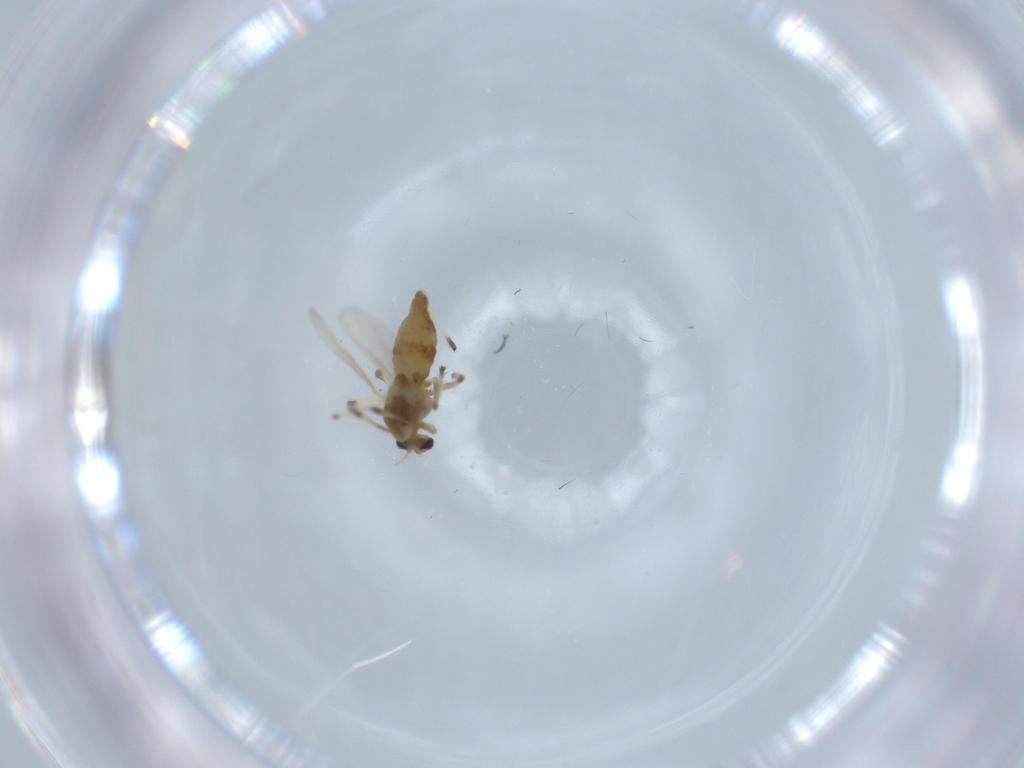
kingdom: Animalia
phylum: Arthropoda
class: Insecta
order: Diptera
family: Chironomidae
